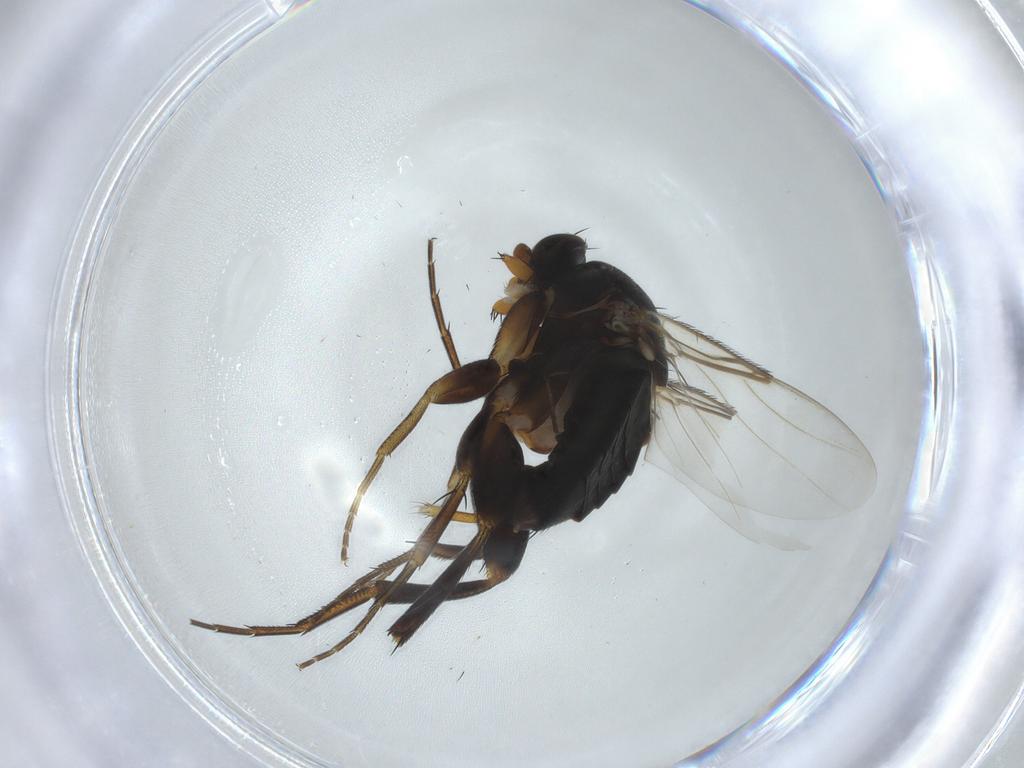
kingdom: Animalia
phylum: Arthropoda
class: Insecta
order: Diptera
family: Phoridae
